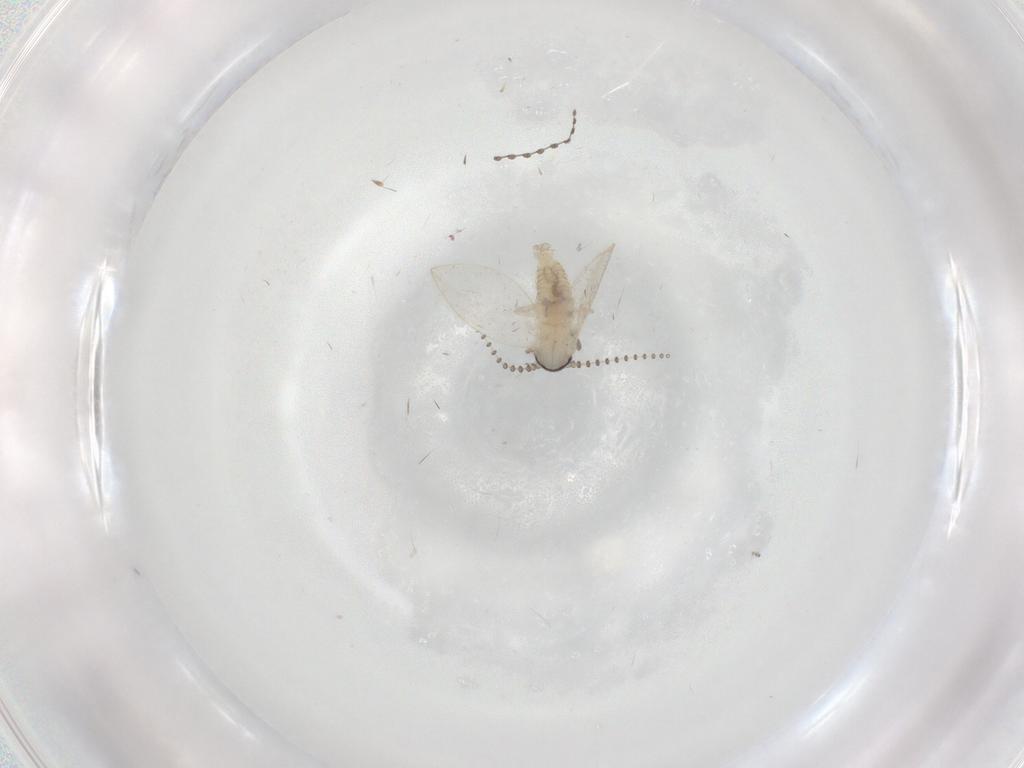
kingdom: Animalia
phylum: Arthropoda
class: Insecta
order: Diptera
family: Psychodidae
